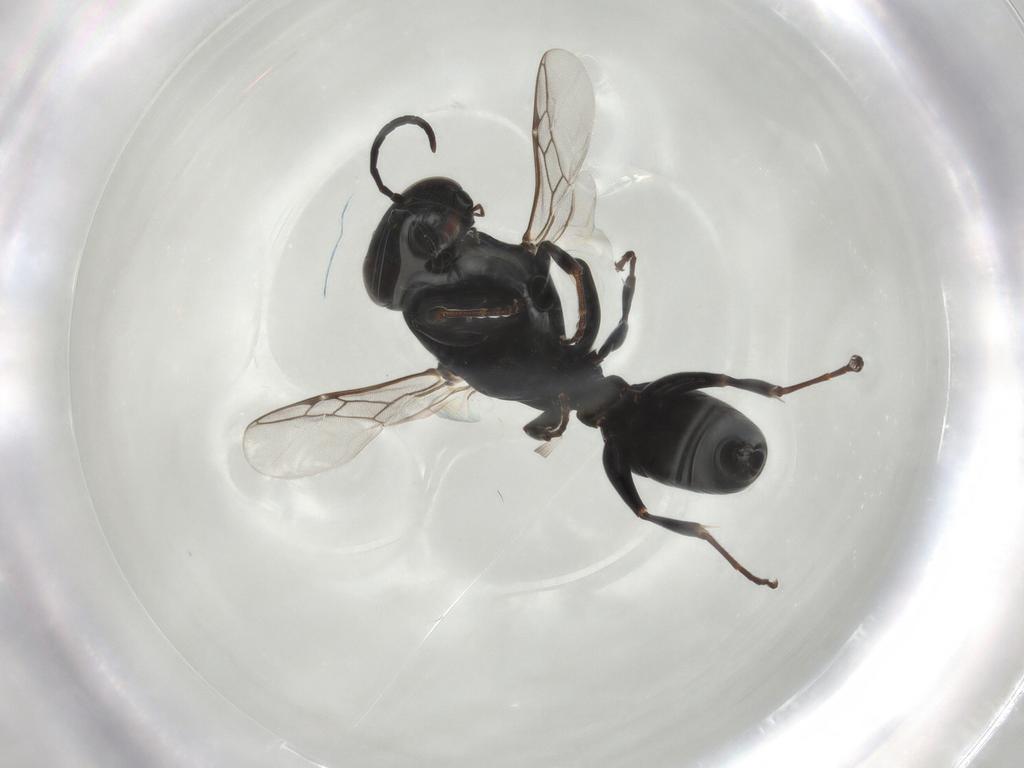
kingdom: Animalia
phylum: Arthropoda
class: Insecta
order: Hymenoptera
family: Crabronidae
